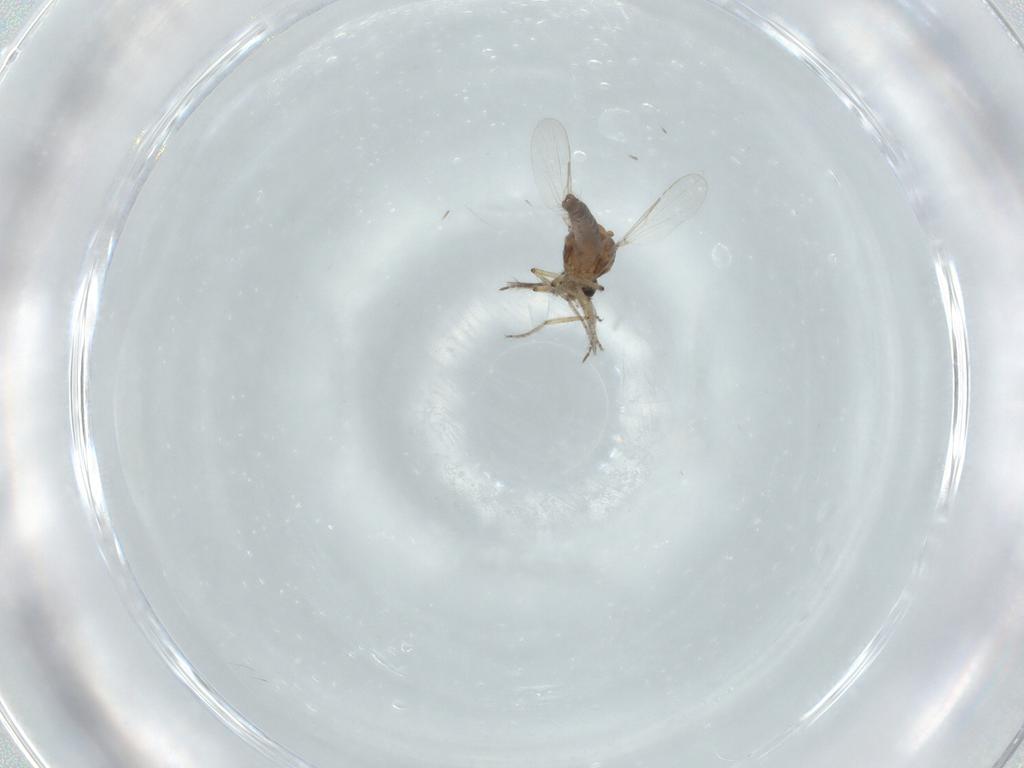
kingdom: Animalia
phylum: Arthropoda
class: Insecta
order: Diptera
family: Ceratopogonidae
